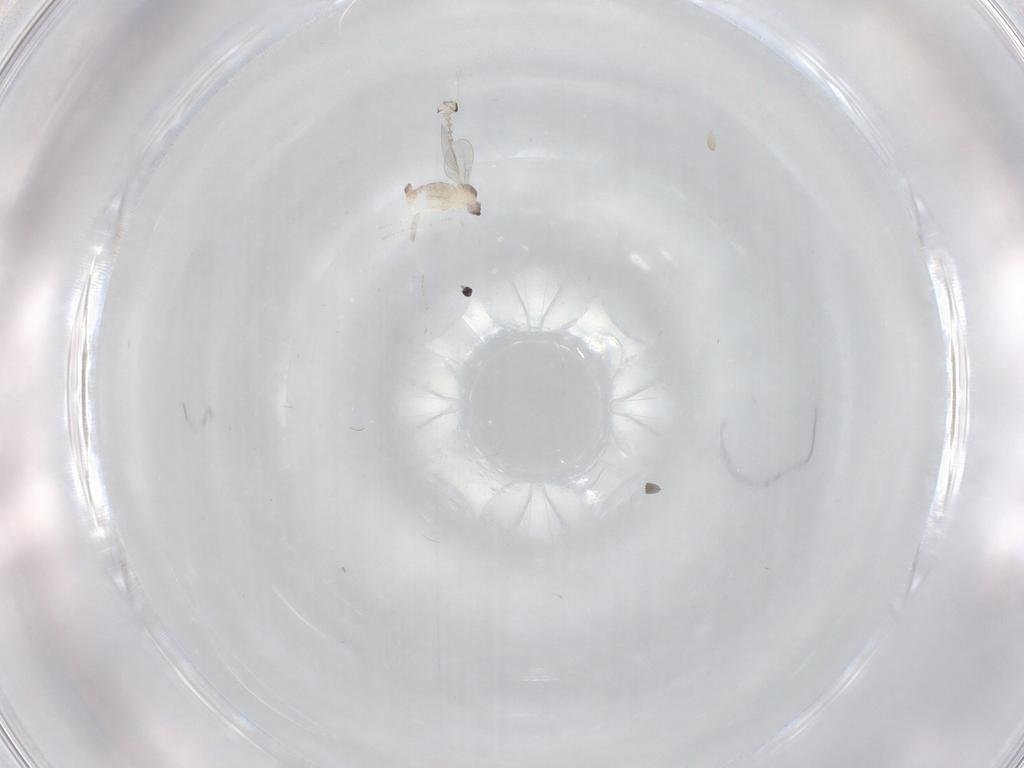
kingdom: Animalia
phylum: Arthropoda
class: Insecta
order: Diptera
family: Cecidomyiidae
